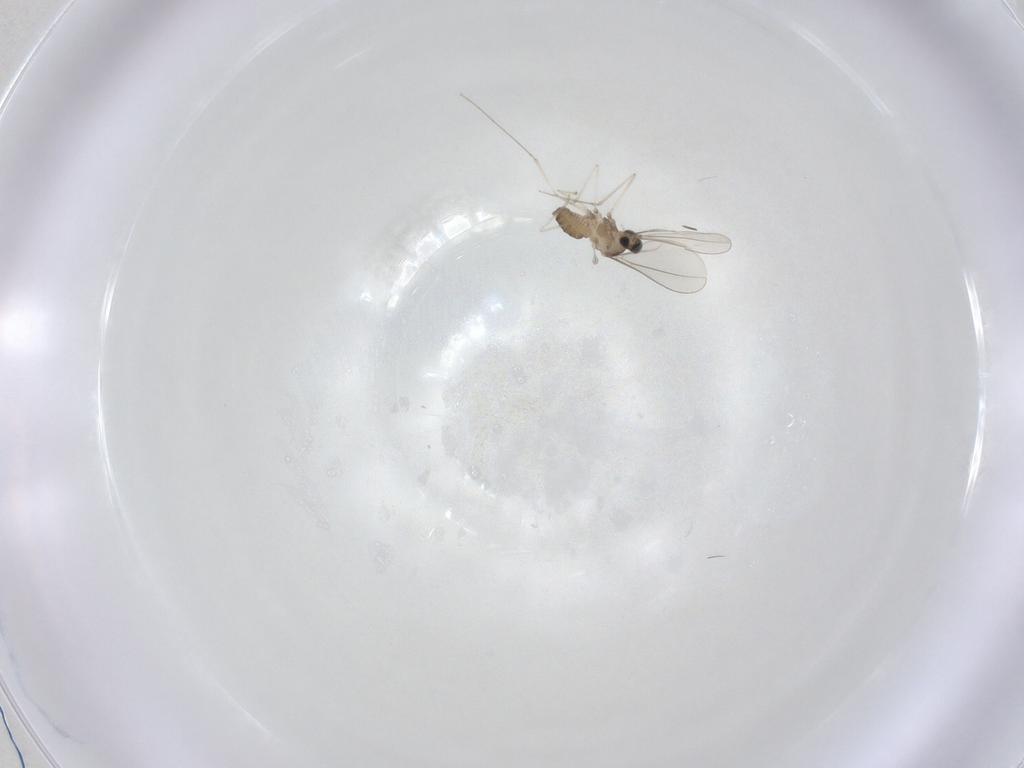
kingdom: Animalia
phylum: Arthropoda
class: Insecta
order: Diptera
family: Cecidomyiidae
